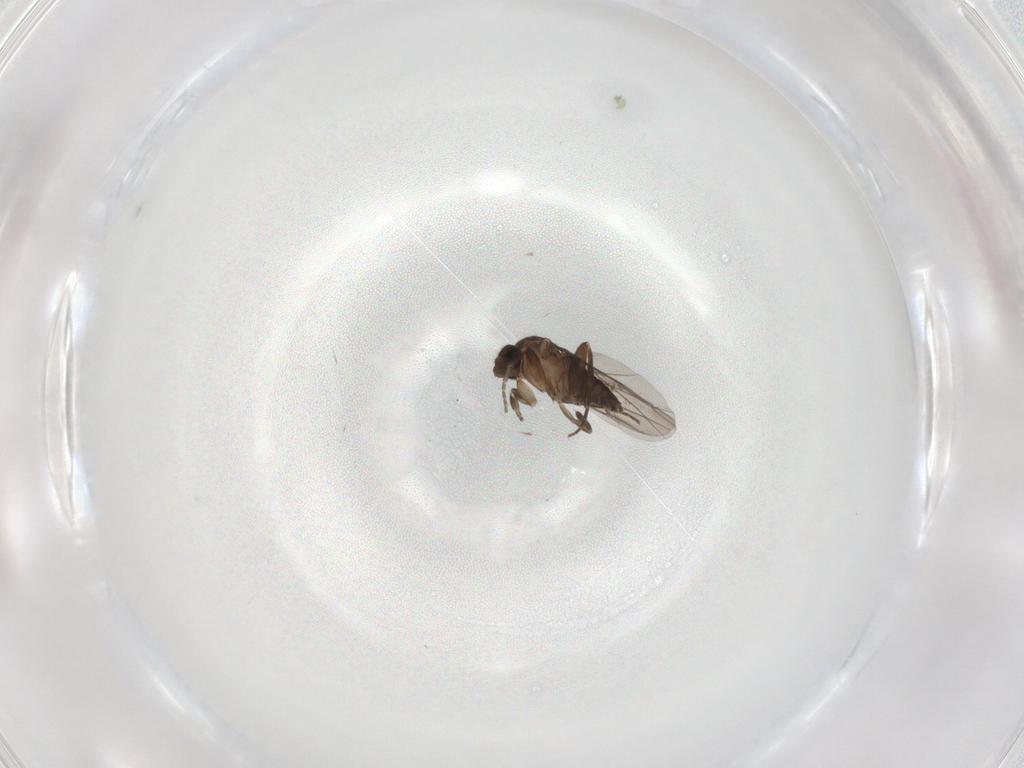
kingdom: Animalia
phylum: Arthropoda
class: Insecta
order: Diptera
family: Phoridae
